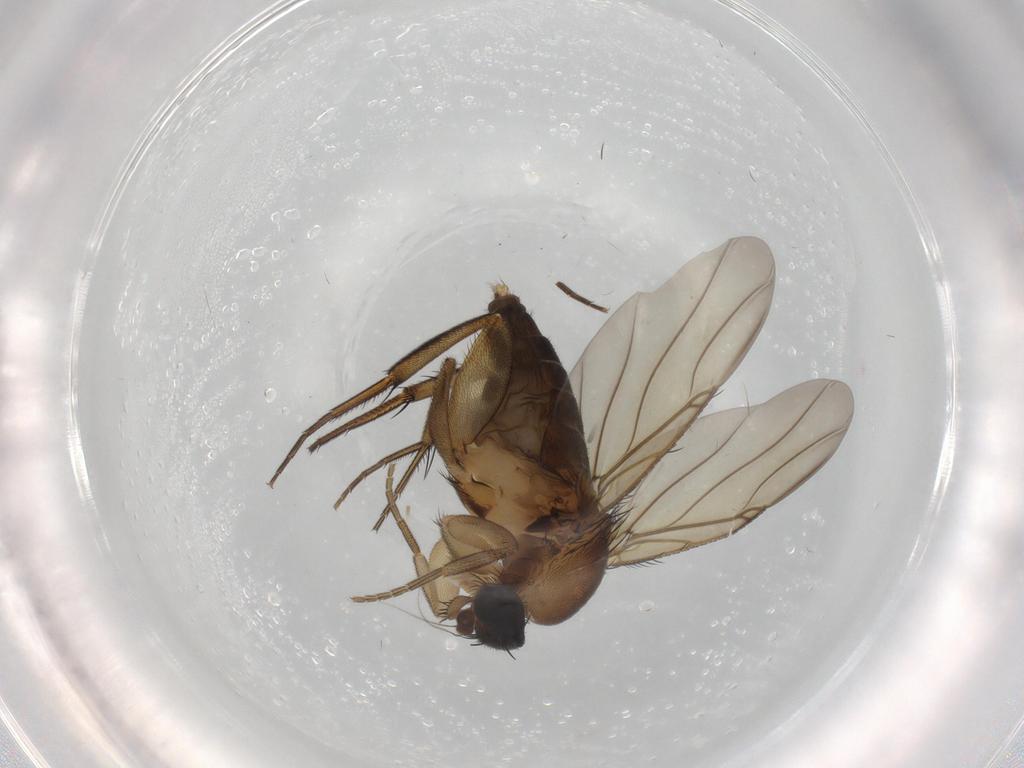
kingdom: Animalia
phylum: Arthropoda
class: Insecta
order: Diptera
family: Phoridae
